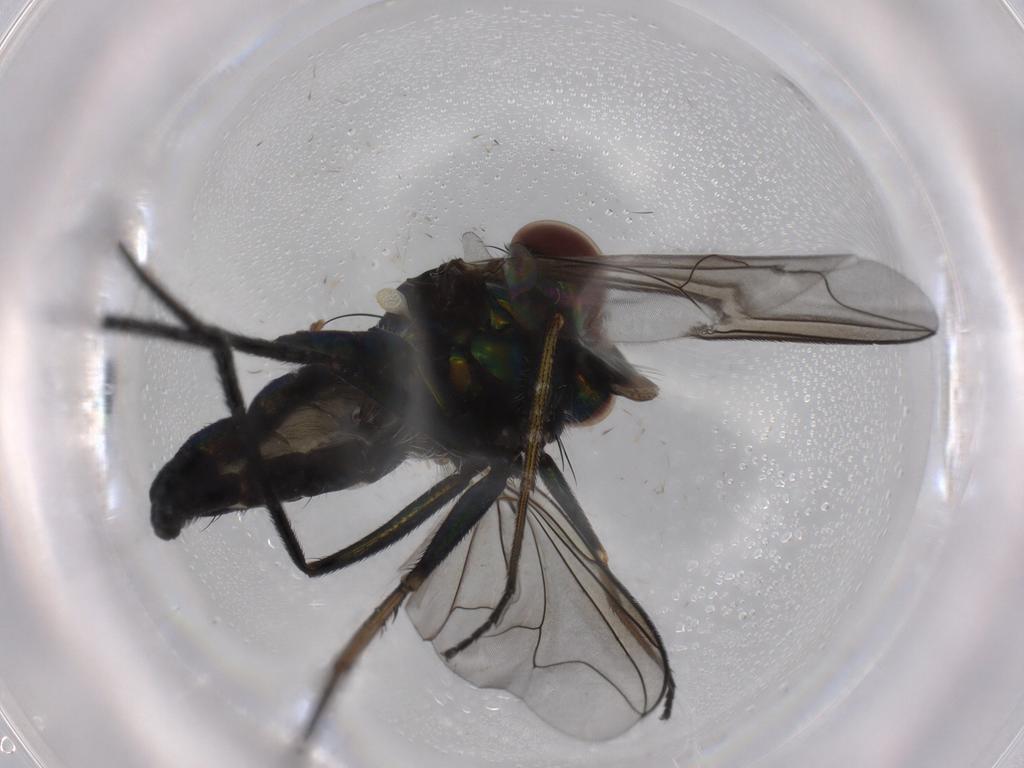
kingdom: Animalia
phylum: Arthropoda
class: Insecta
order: Diptera
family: Dolichopodidae
